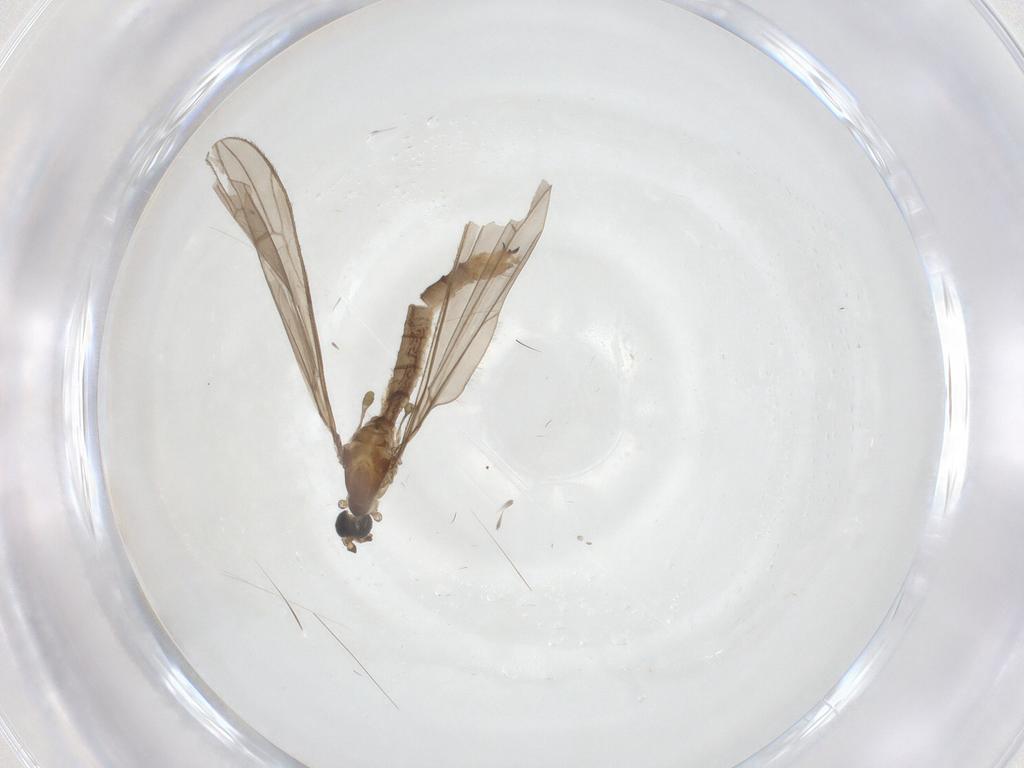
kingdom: Animalia
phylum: Arthropoda
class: Insecta
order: Diptera
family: Limoniidae
